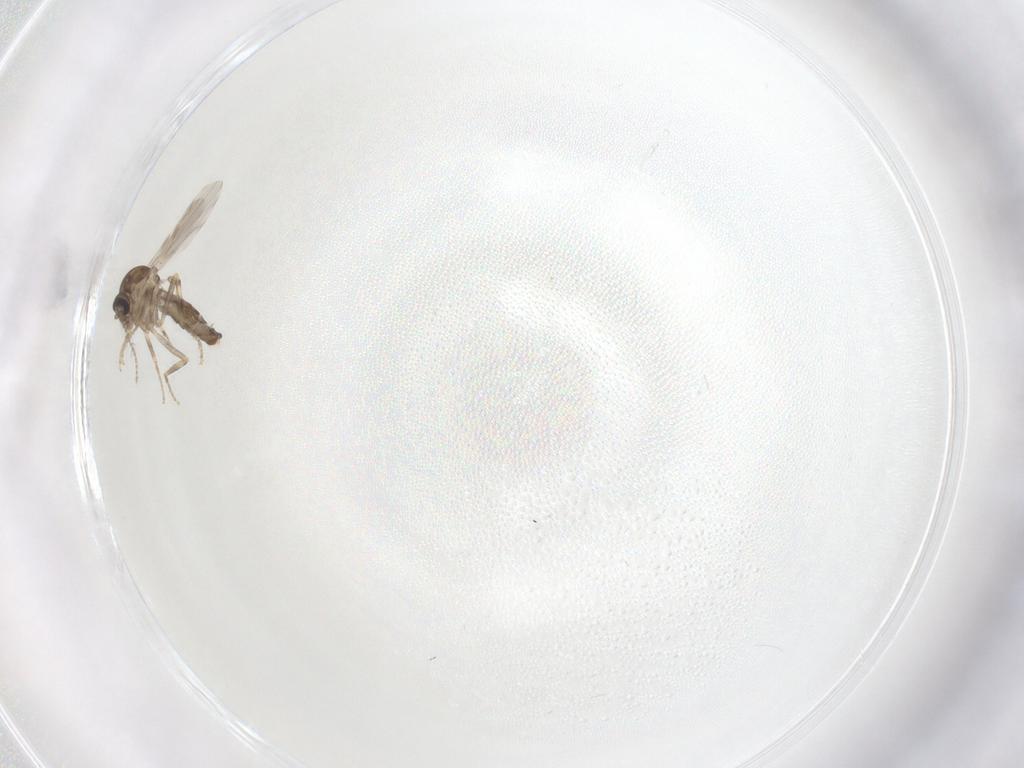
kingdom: Animalia
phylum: Arthropoda
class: Insecta
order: Diptera
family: Ceratopogonidae
